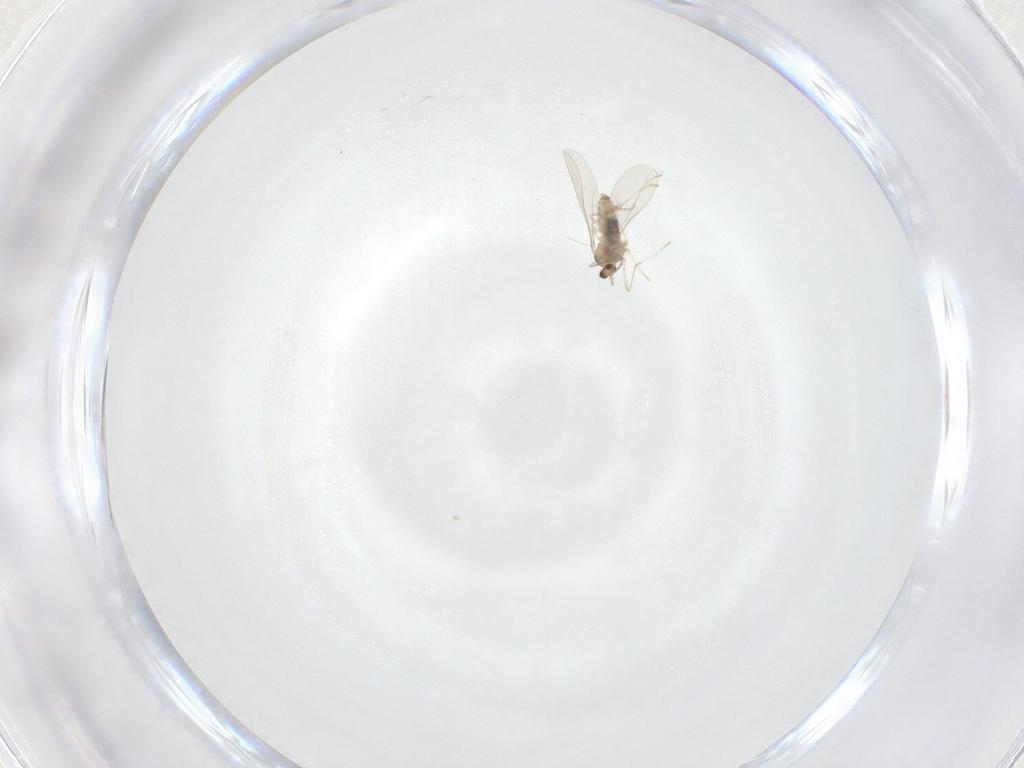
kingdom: Animalia
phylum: Arthropoda
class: Insecta
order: Diptera
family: Cecidomyiidae
